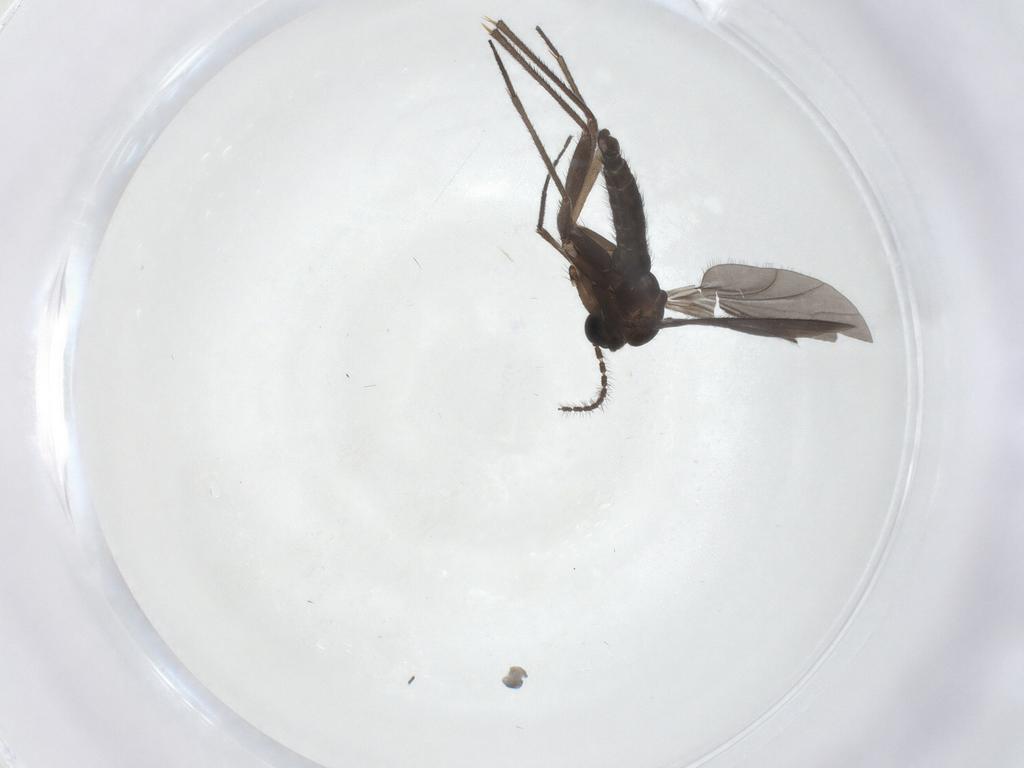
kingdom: Animalia
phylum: Arthropoda
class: Insecta
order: Diptera
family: Sciaridae
